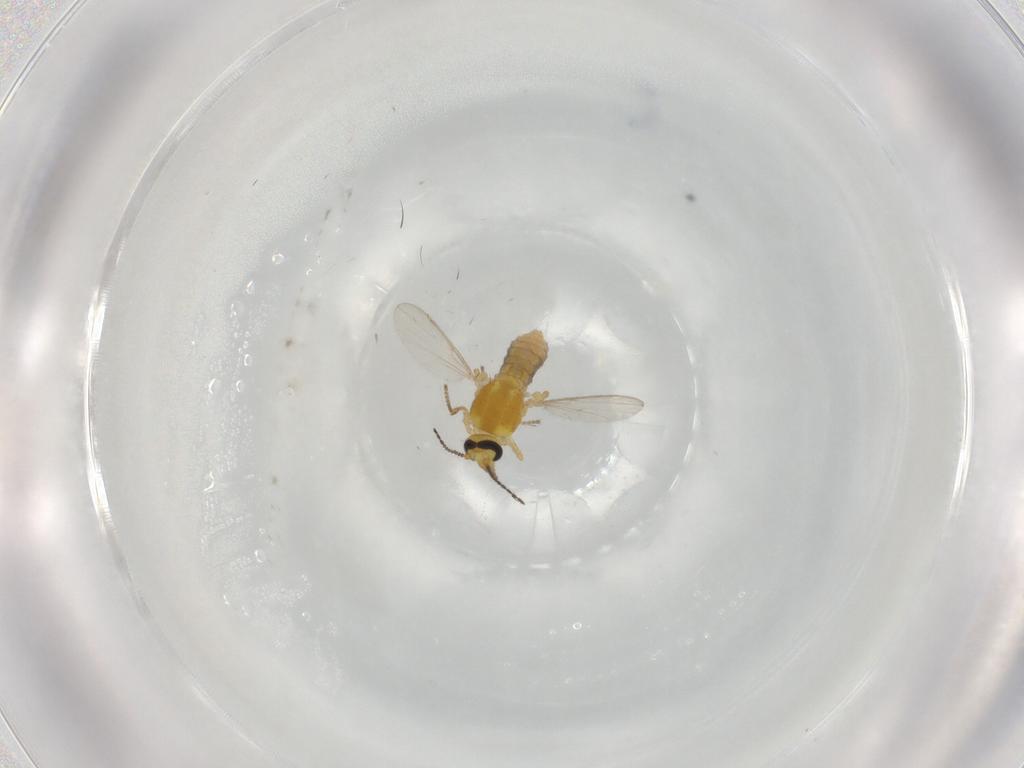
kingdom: Animalia
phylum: Arthropoda
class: Insecta
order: Diptera
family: Ceratopogonidae
